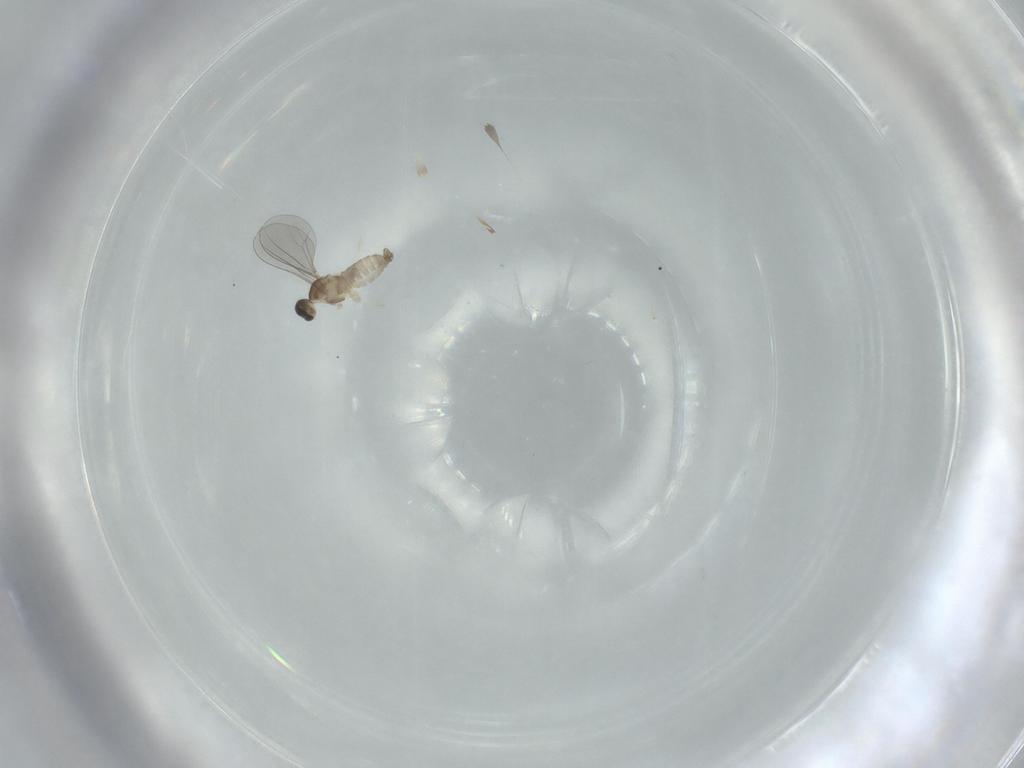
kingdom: Animalia
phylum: Arthropoda
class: Insecta
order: Diptera
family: Cecidomyiidae
